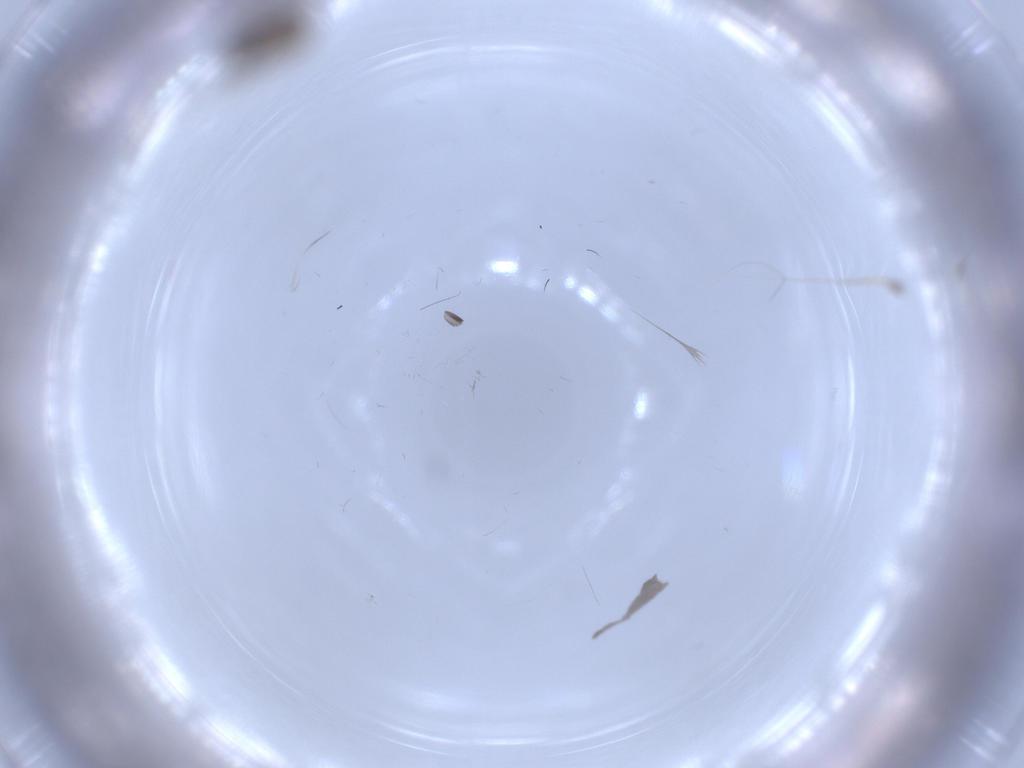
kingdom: Animalia
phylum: Arthropoda
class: Insecta
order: Diptera
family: Cecidomyiidae
